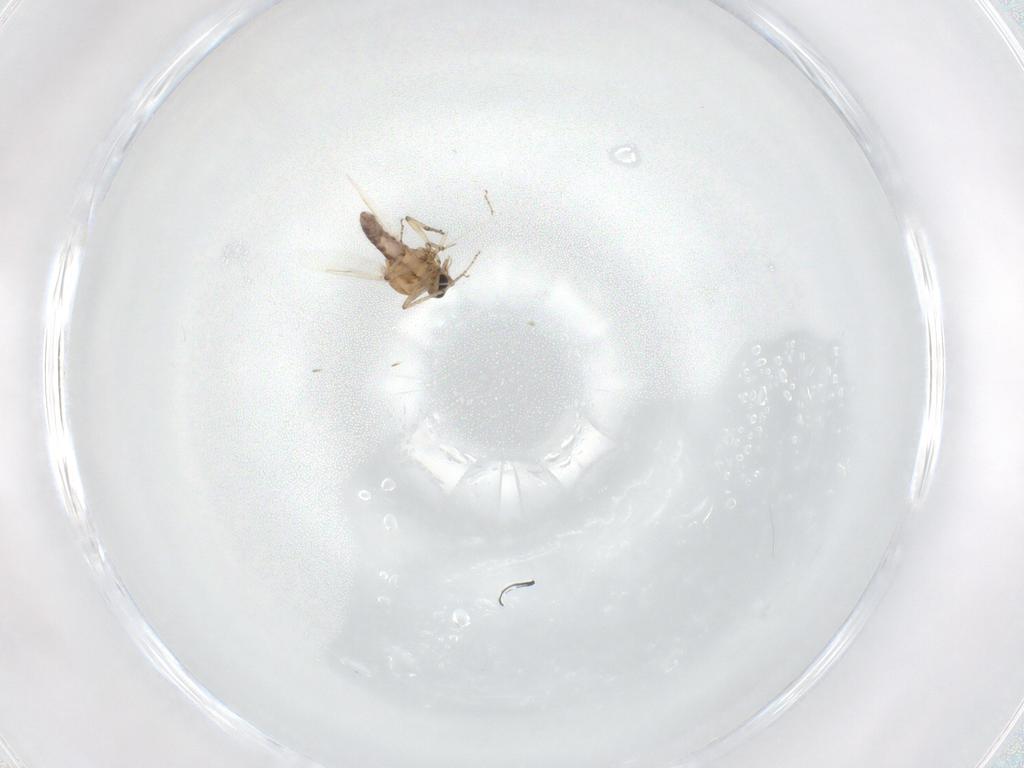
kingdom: Animalia
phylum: Arthropoda
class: Insecta
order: Diptera
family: Ceratopogonidae
